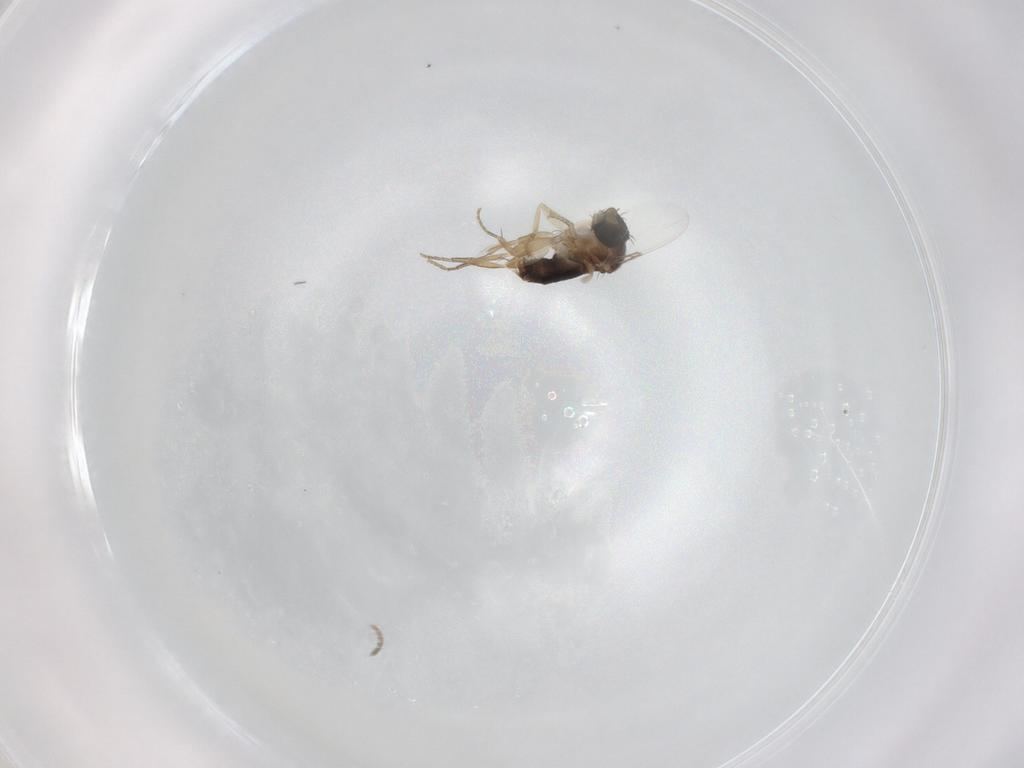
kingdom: Animalia
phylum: Arthropoda
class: Insecta
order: Diptera
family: Phoridae
